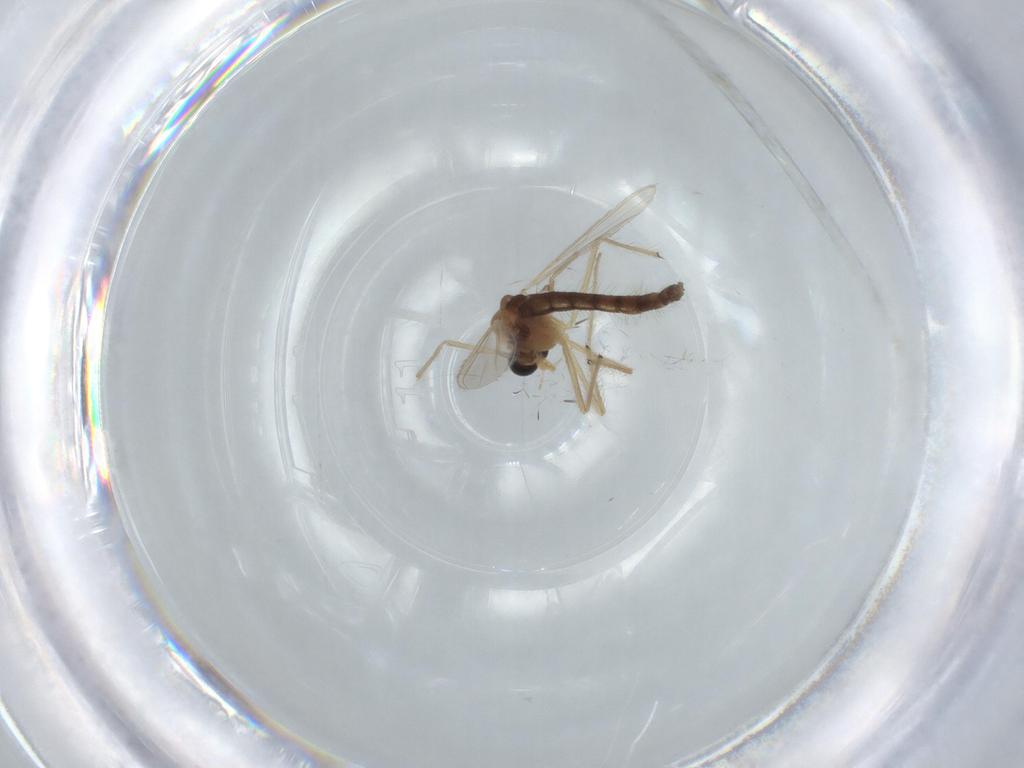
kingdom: Animalia
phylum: Arthropoda
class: Insecta
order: Diptera
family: Chironomidae
